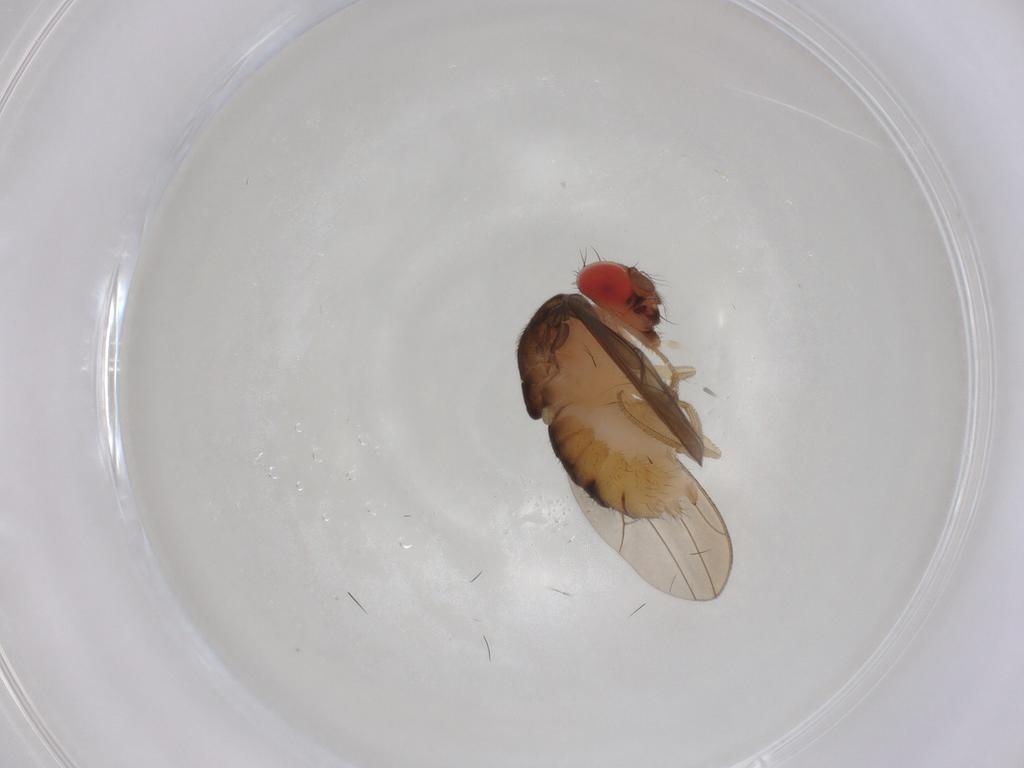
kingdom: Animalia
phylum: Arthropoda
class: Insecta
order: Diptera
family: Drosophilidae
